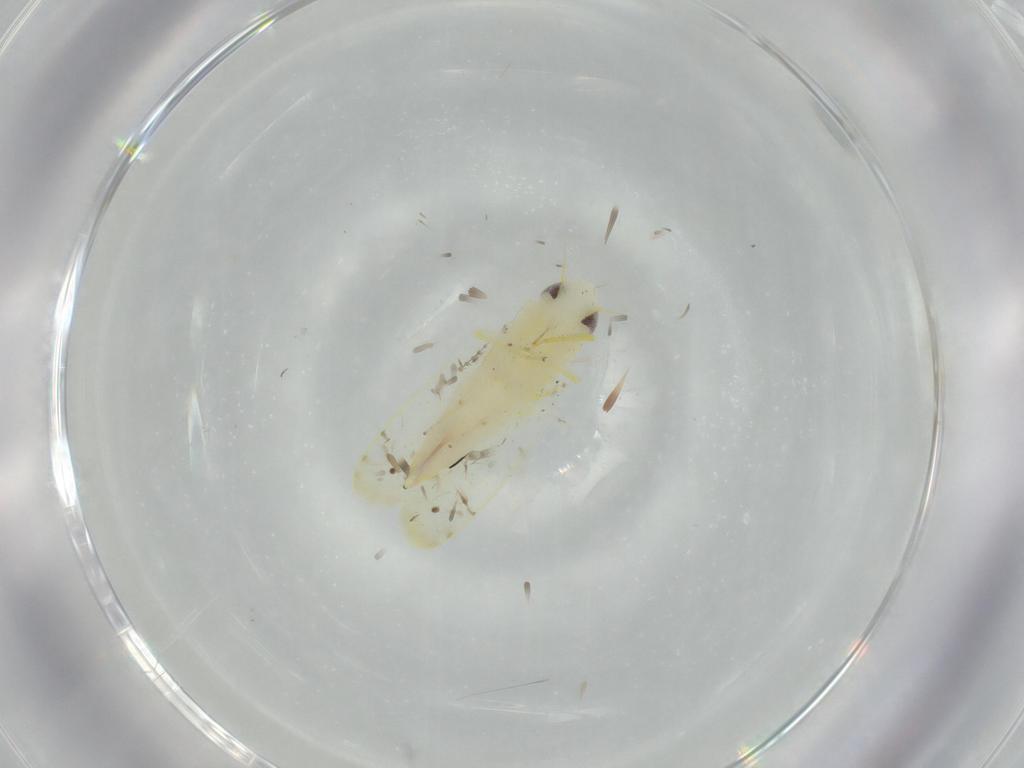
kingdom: Animalia
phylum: Arthropoda
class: Insecta
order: Hemiptera
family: Cicadellidae
